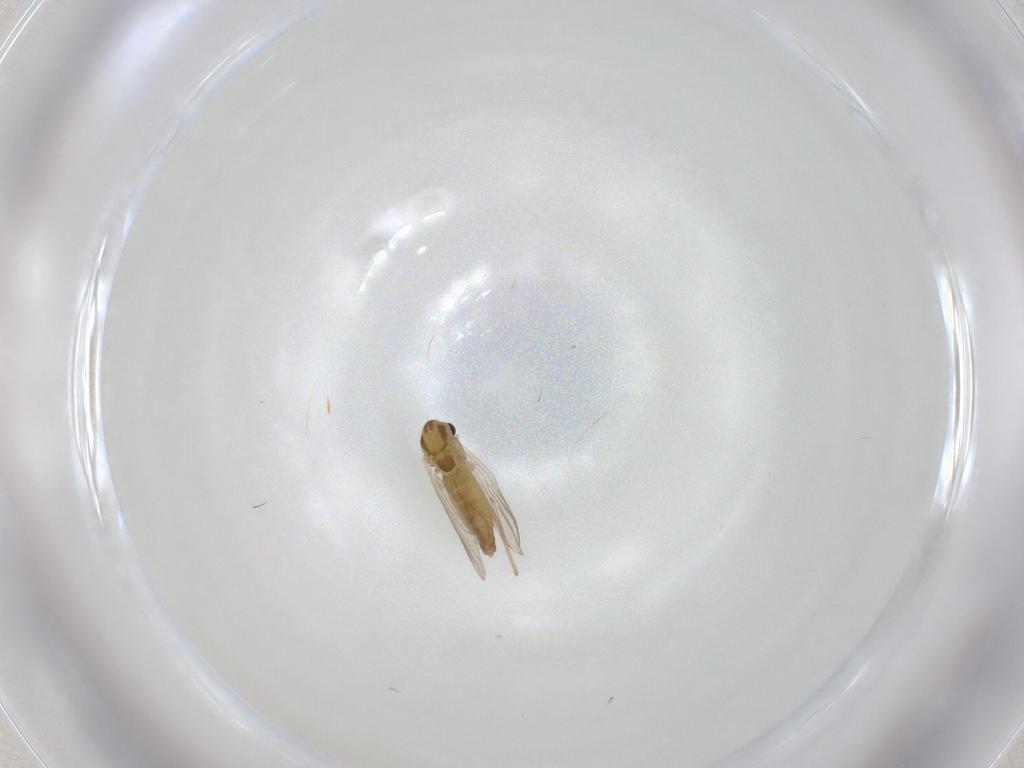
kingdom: Animalia
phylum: Arthropoda
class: Insecta
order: Diptera
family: Chironomidae
